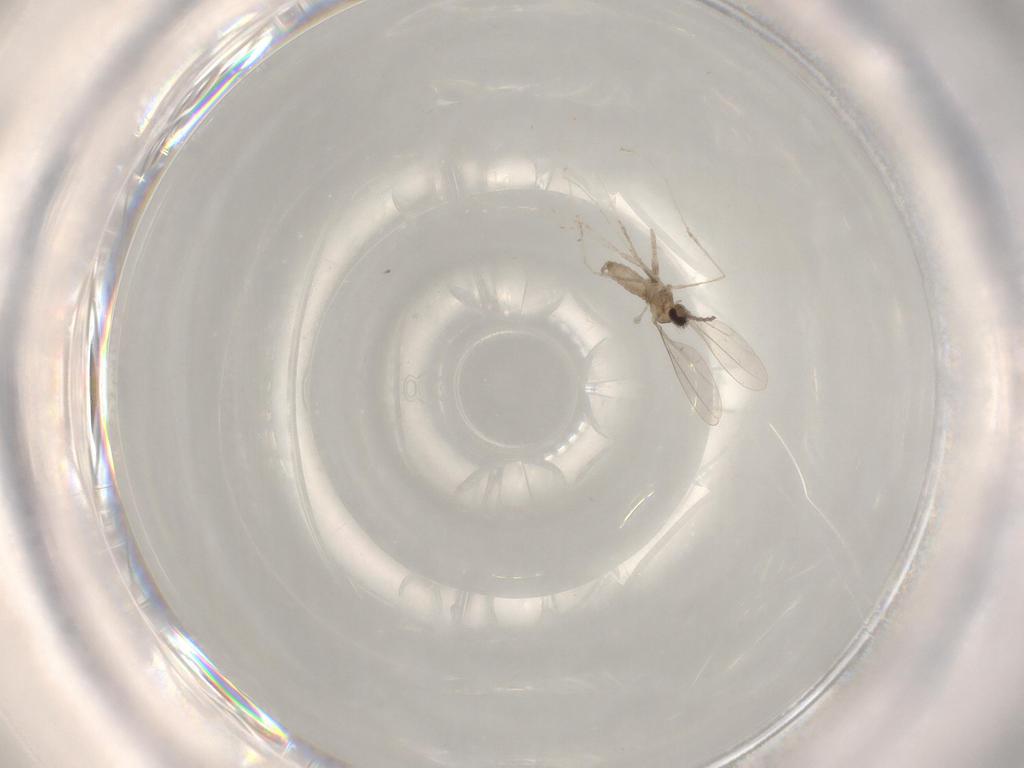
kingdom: Animalia
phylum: Arthropoda
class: Insecta
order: Diptera
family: Cecidomyiidae
